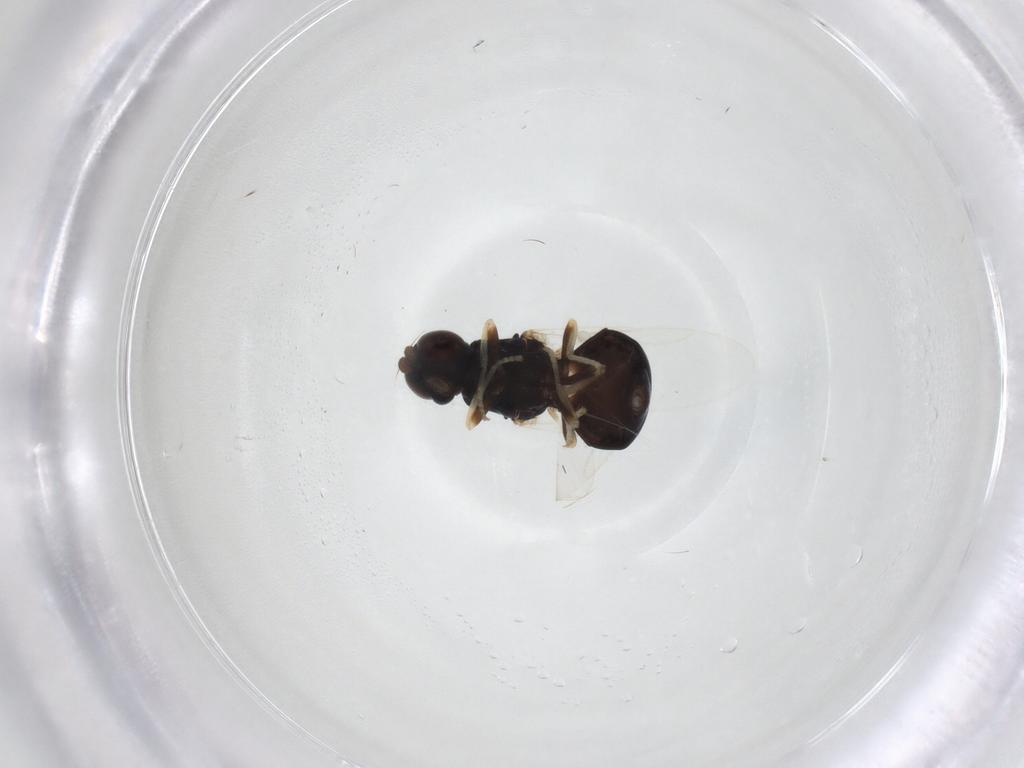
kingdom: Animalia
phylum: Arthropoda
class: Insecta
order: Diptera
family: Stratiomyidae
